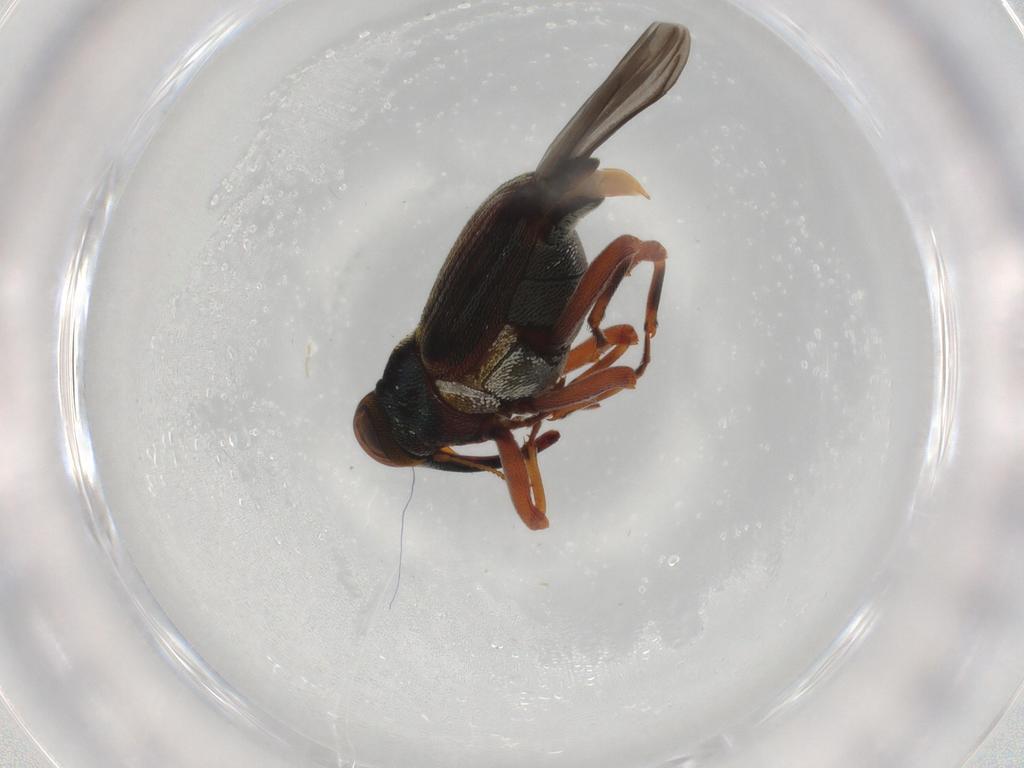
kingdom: Animalia
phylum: Arthropoda
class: Insecta
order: Coleoptera
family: Curculionidae
